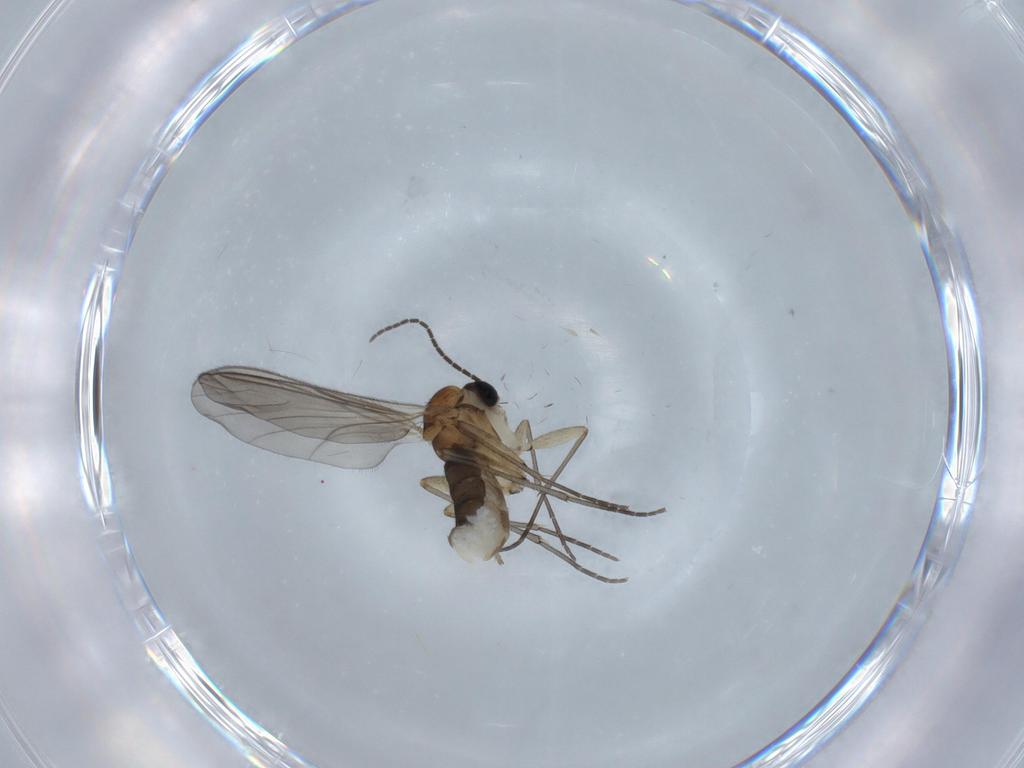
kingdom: Animalia
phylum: Arthropoda
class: Insecta
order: Diptera
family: Sciaridae
